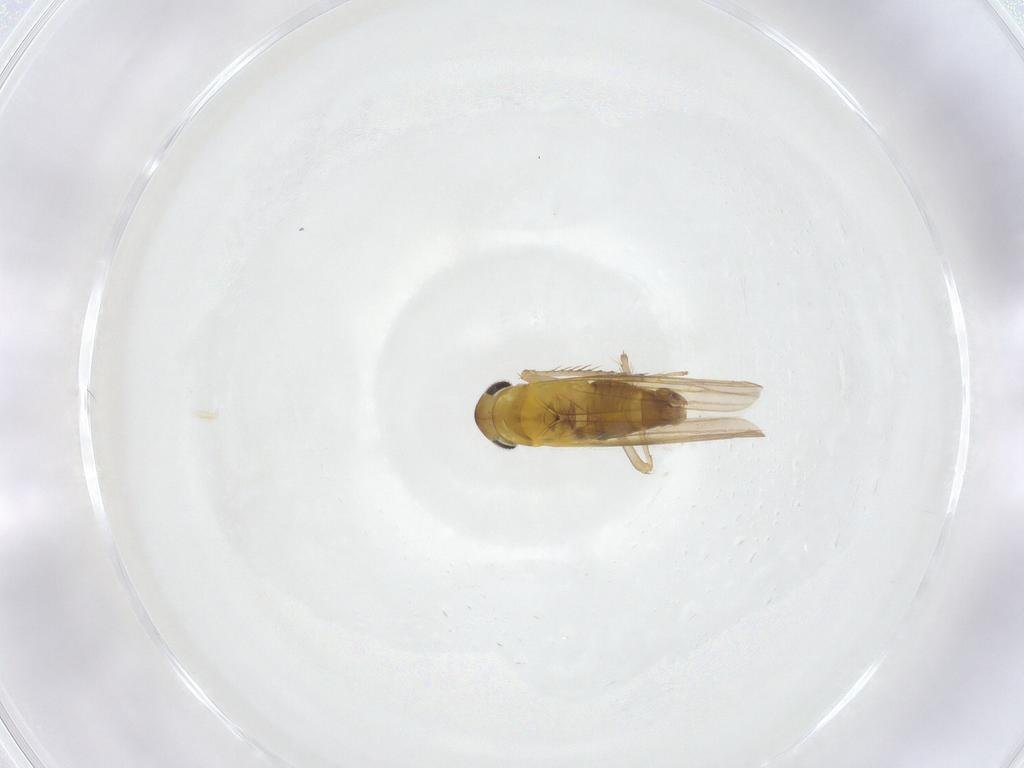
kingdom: Animalia
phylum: Arthropoda
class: Insecta
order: Hemiptera
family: Cicadellidae
